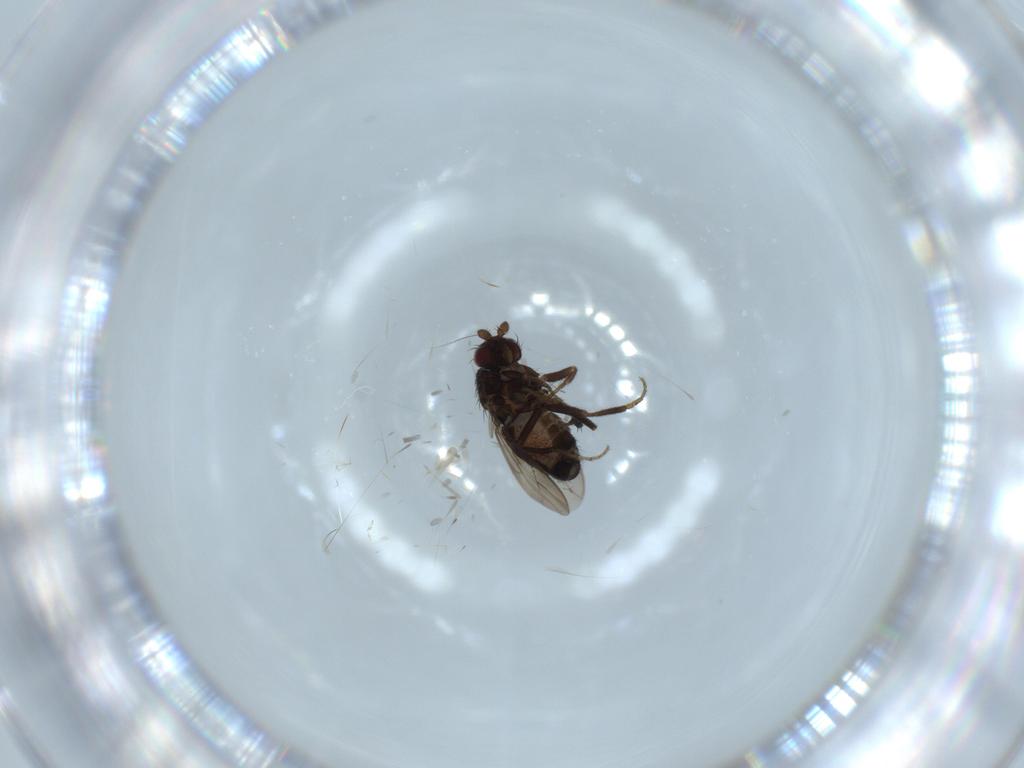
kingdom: Animalia
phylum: Arthropoda
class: Insecta
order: Diptera
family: Sphaeroceridae
